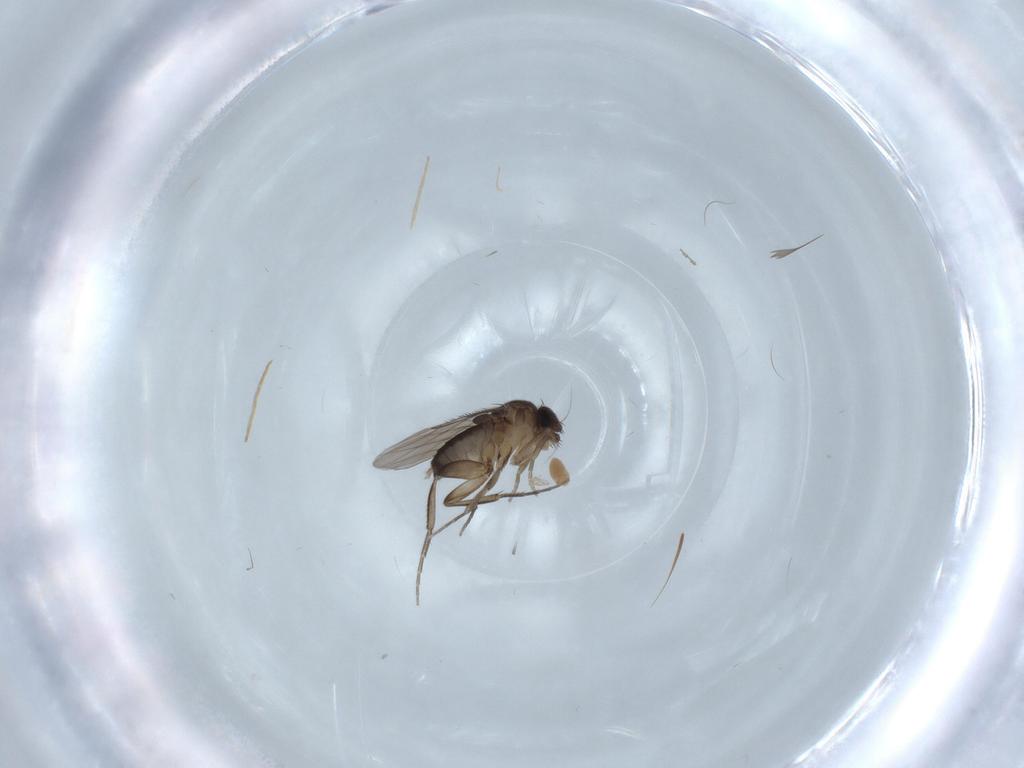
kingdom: Animalia
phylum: Arthropoda
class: Insecta
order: Diptera
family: Phoridae
